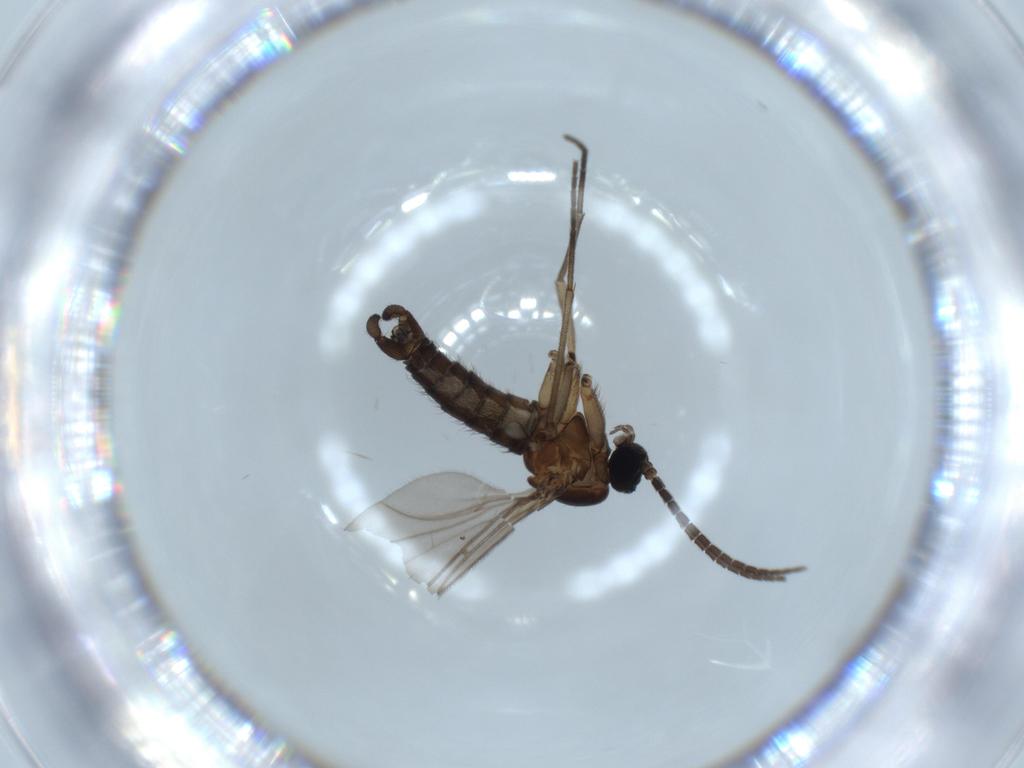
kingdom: Animalia
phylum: Arthropoda
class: Insecta
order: Diptera
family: Sciaridae
